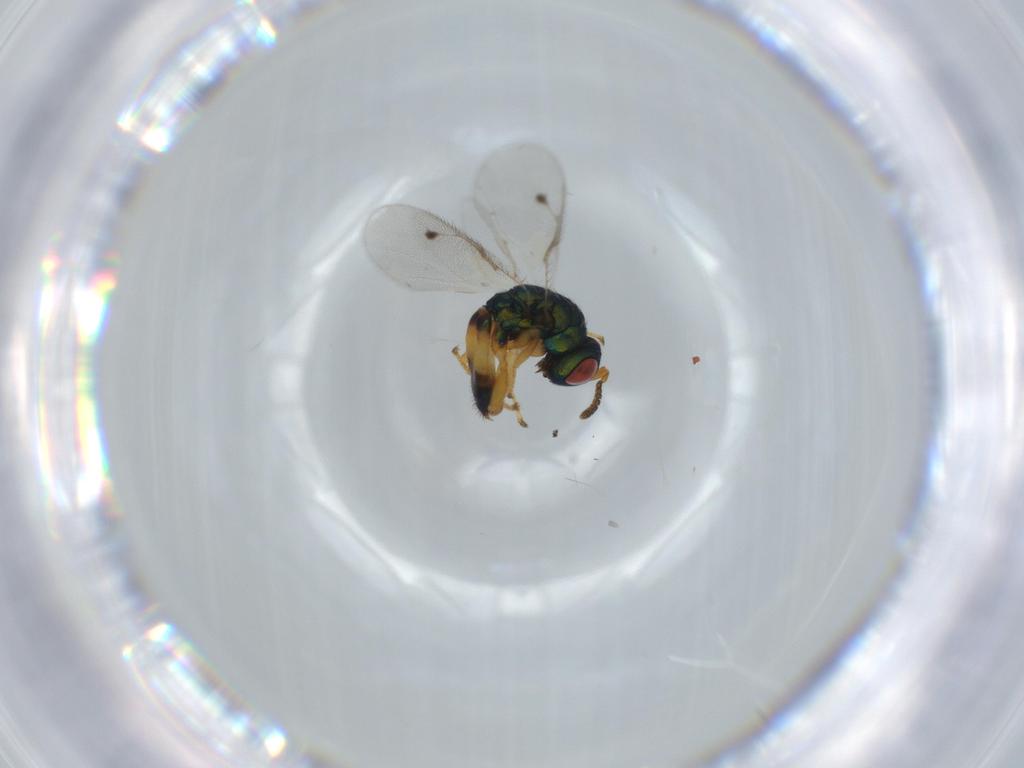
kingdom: Animalia
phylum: Arthropoda
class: Insecta
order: Hymenoptera
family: Pteromalidae
